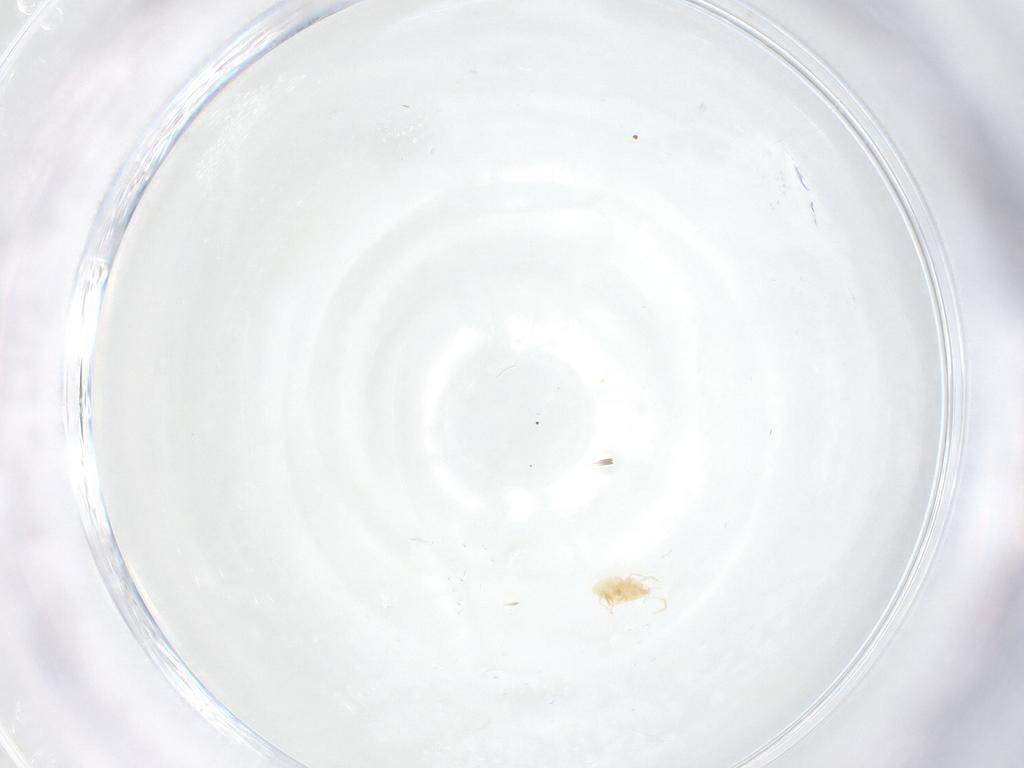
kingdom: Animalia
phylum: Arthropoda
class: Arachnida
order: Trombidiformes
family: Eupodidae
